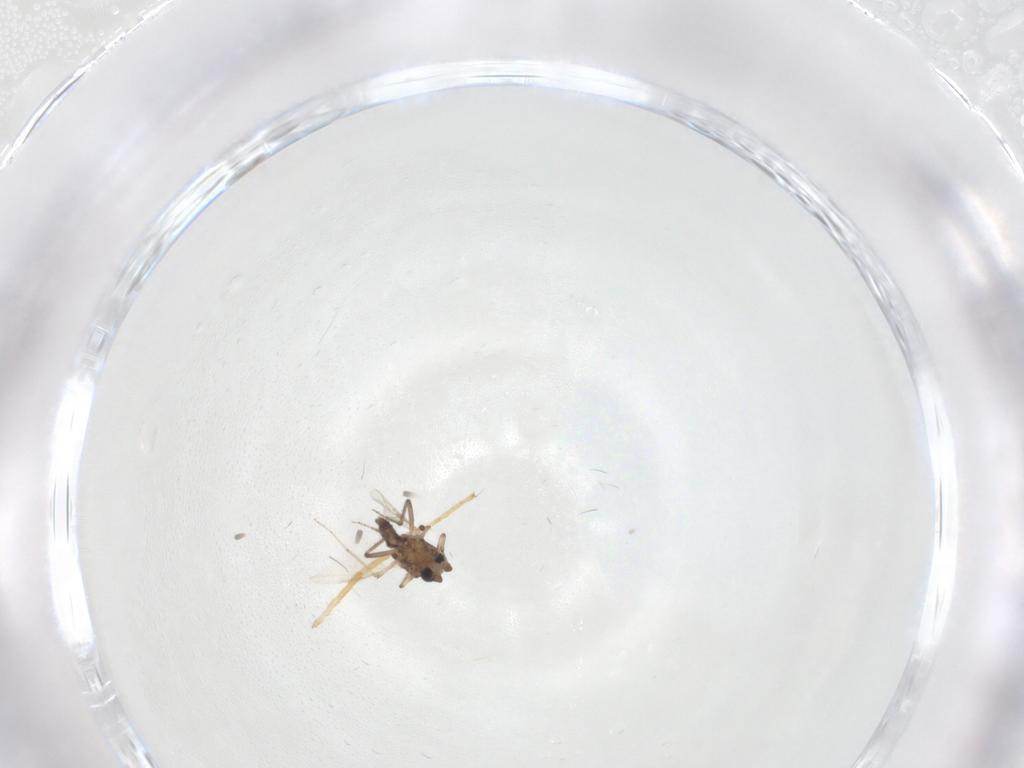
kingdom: Animalia
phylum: Arthropoda
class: Insecta
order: Diptera
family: Ceratopogonidae
